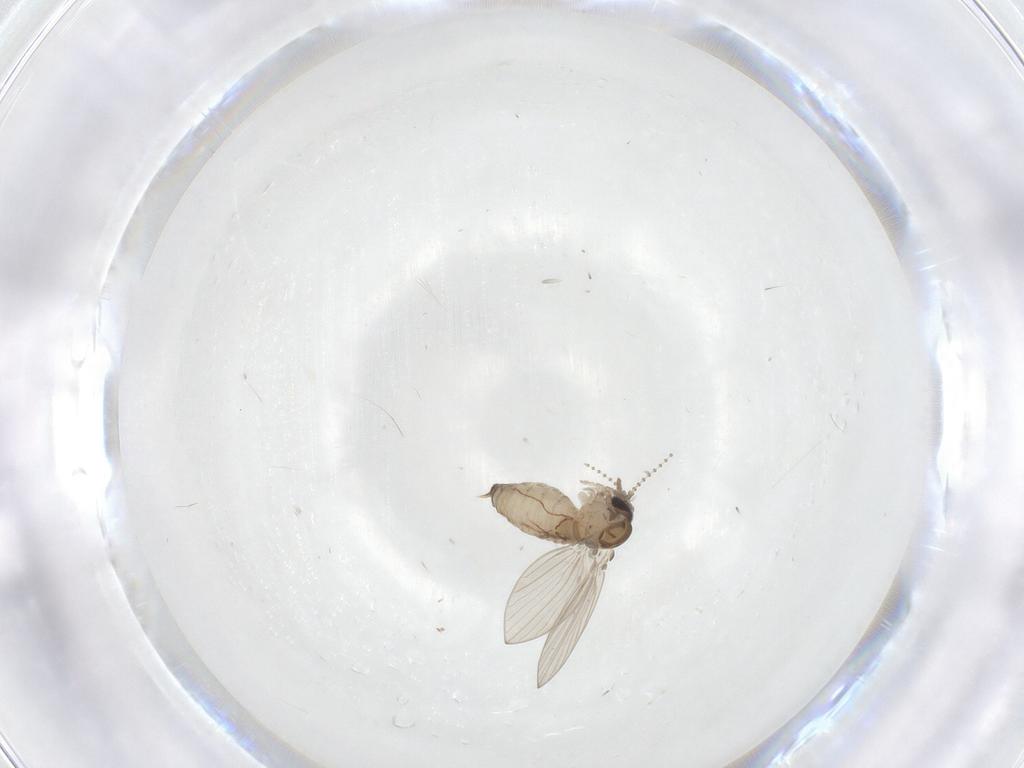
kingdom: Animalia
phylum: Arthropoda
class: Insecta
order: Diptera
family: Psychodidae
